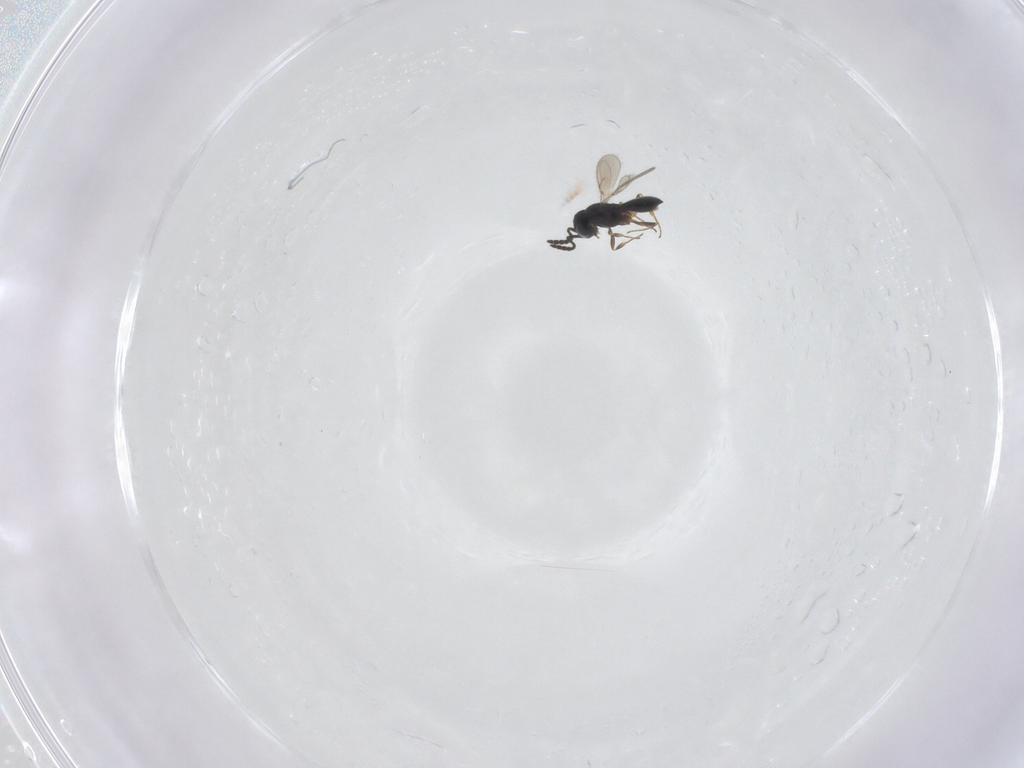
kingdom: Animalia
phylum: Arthropoda
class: Insecta
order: Hymenoptera
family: Scelionidae
